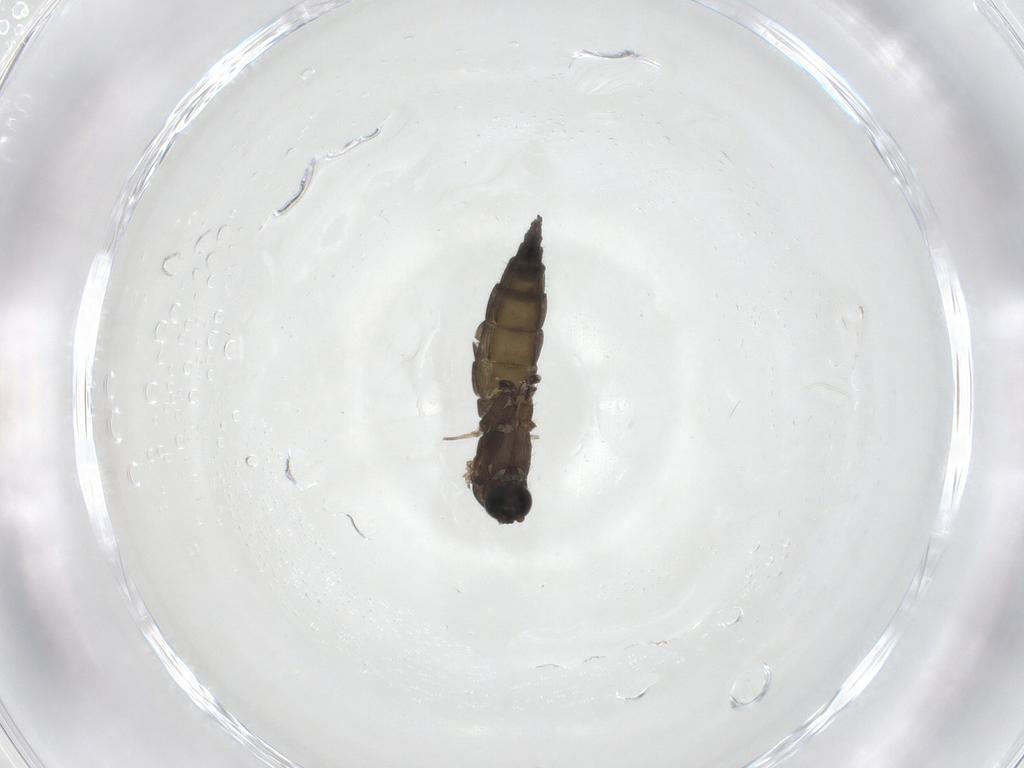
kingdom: Animalia
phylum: Arthropoda
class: Insecta
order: Diptera
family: Sciaridae
